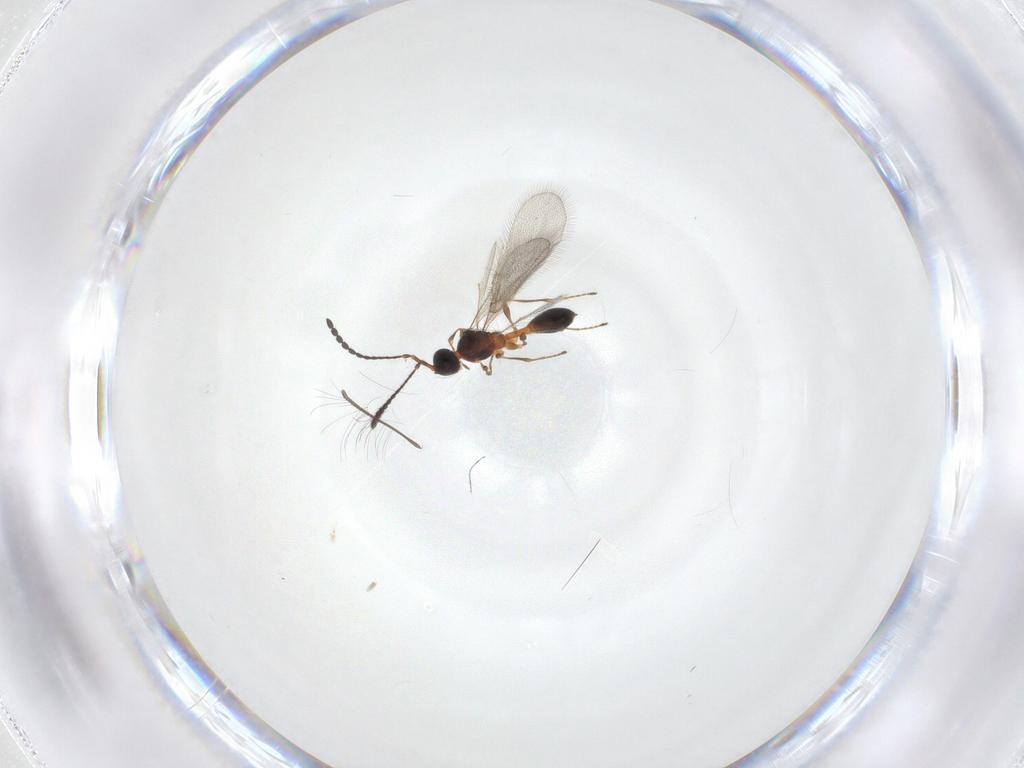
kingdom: Animalia
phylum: Arthropoda
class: Insecta
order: Hymenoptera
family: Diapriidae
